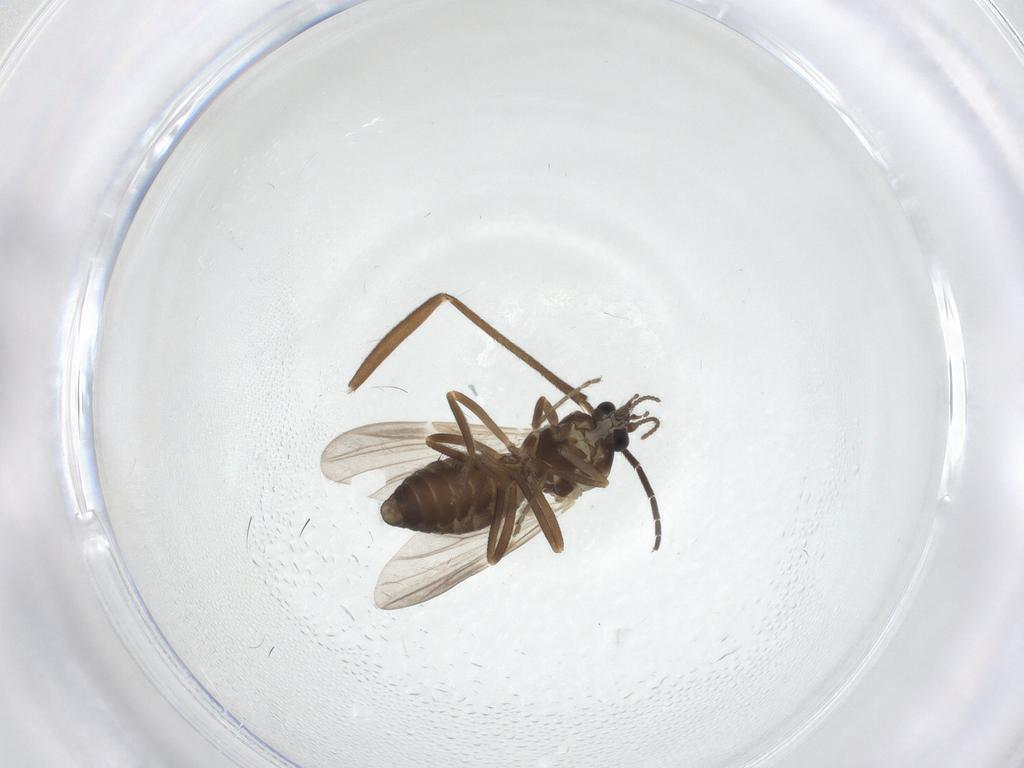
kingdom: Animalia
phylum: Arthropoda
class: Insecta
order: Diptera
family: Ceratopogonidae
